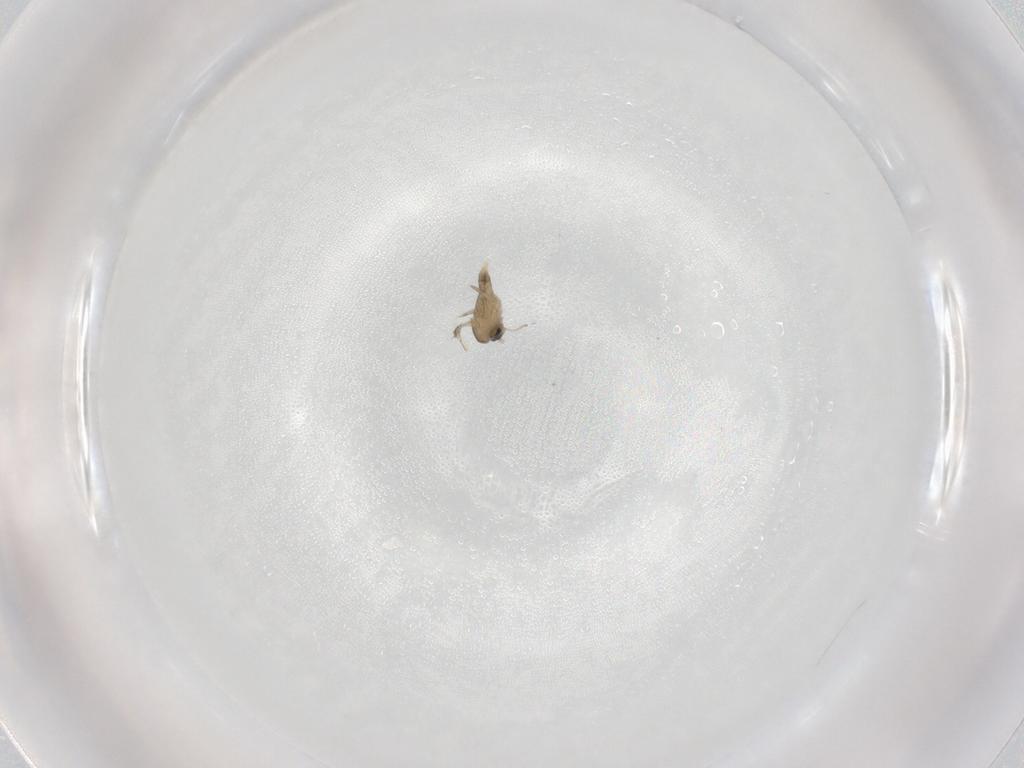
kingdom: Animalia
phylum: Arthropoda
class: Insecta
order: Diptera
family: Cecidomyiidae
